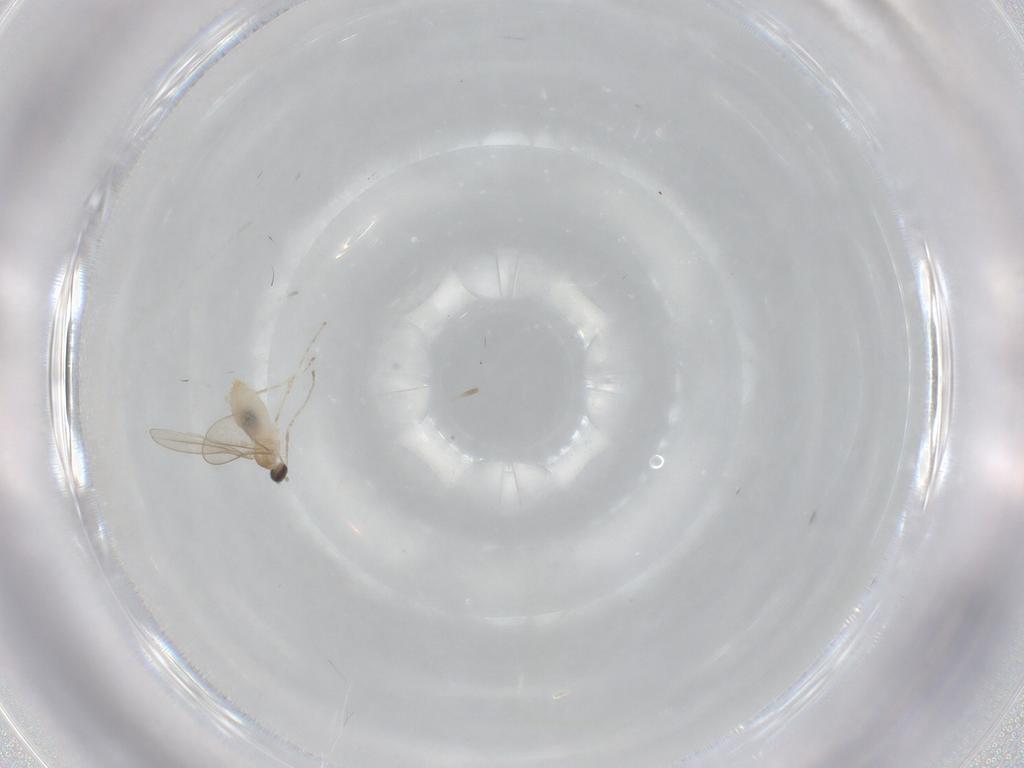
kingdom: Animalia
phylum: Arthropoda
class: Insecta
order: Diptera
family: Cecidomyiidae
